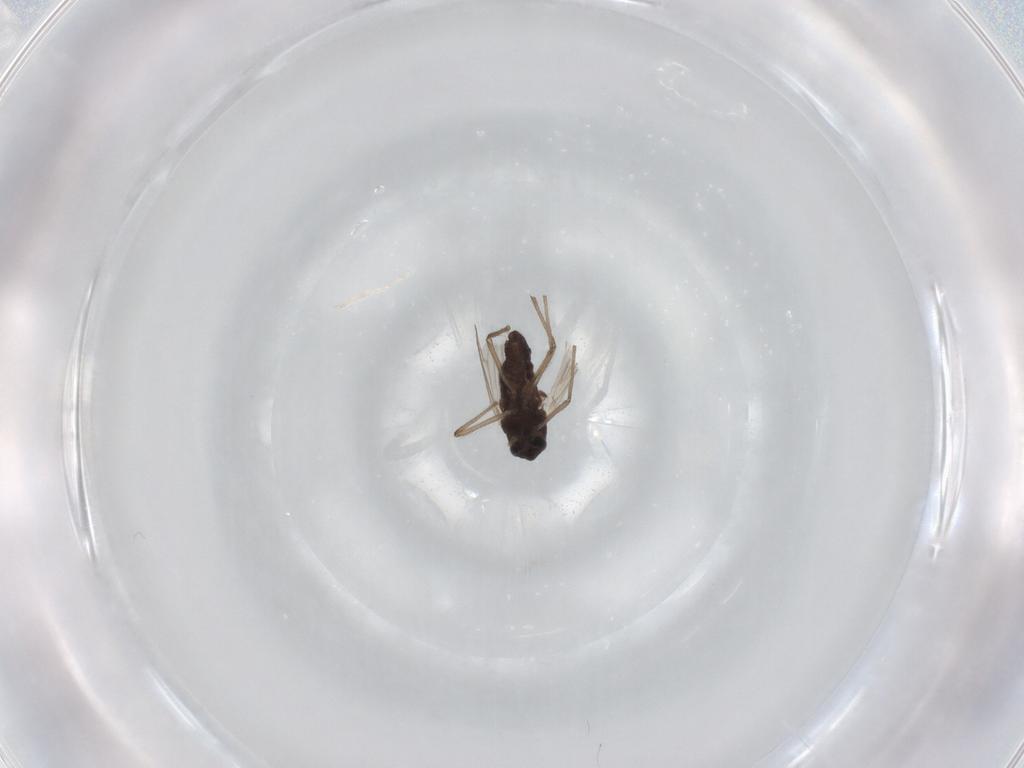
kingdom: Animalia
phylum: Arthropoda
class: Insecta
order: Diptera
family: Chironomidae
